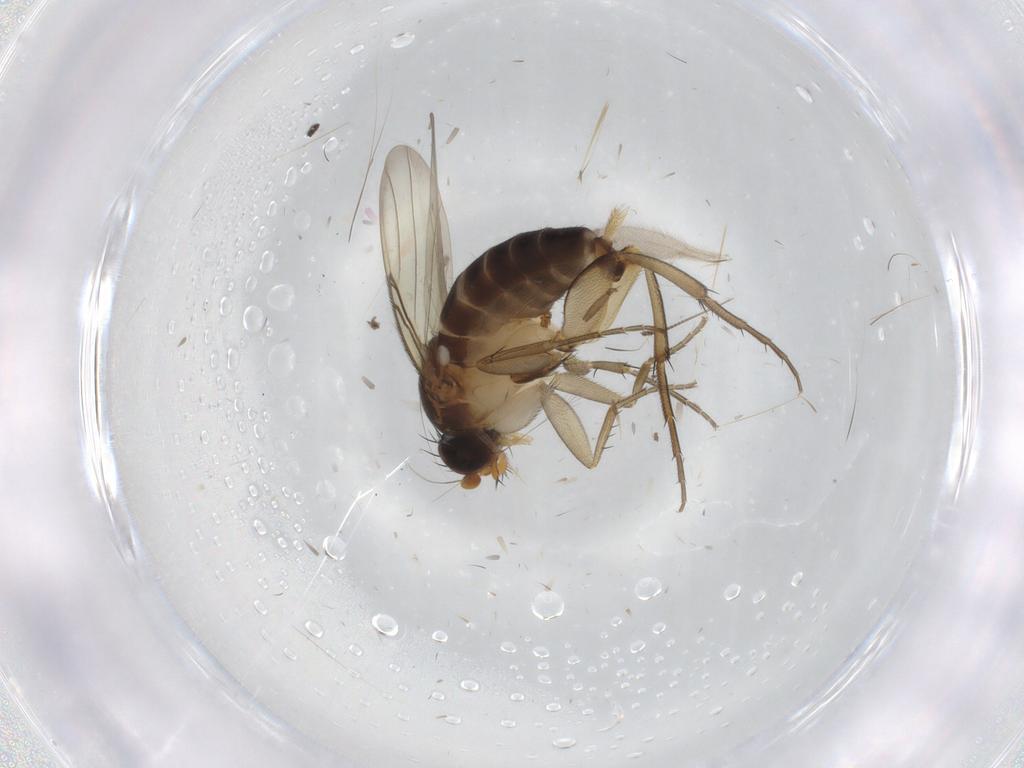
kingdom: Animalia
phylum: Arthropoda
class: Insecta
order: Diptera
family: Phoridae
